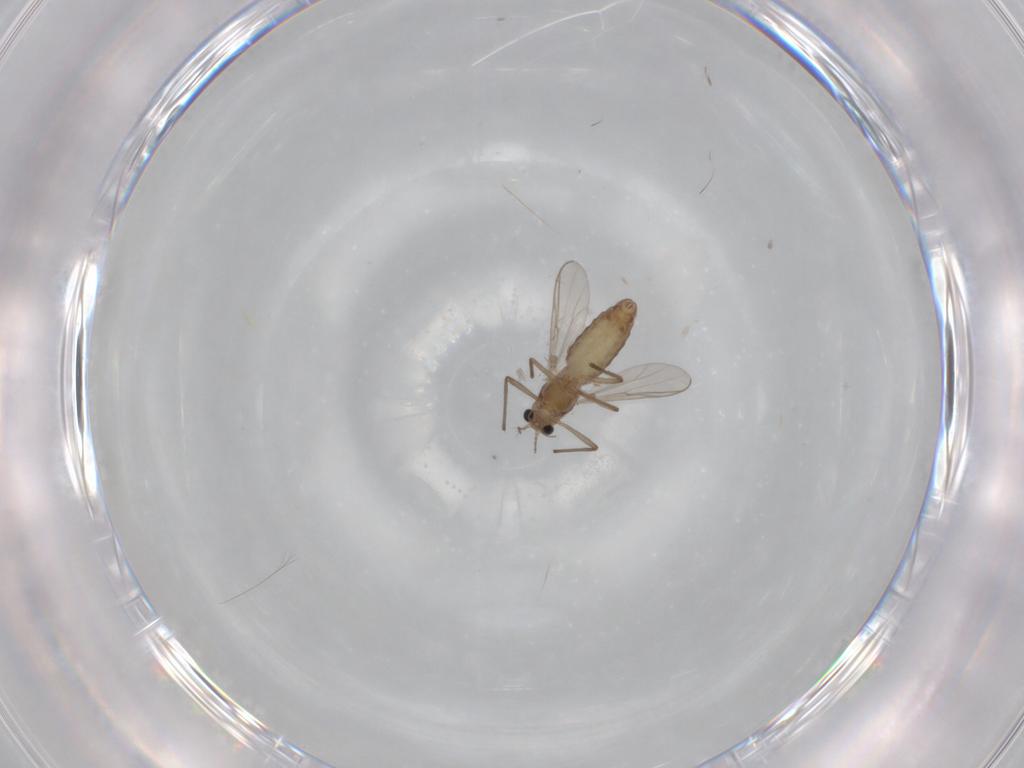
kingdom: Animalia
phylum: Arthropoda
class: Insecta
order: Diptera
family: Chironomidae
